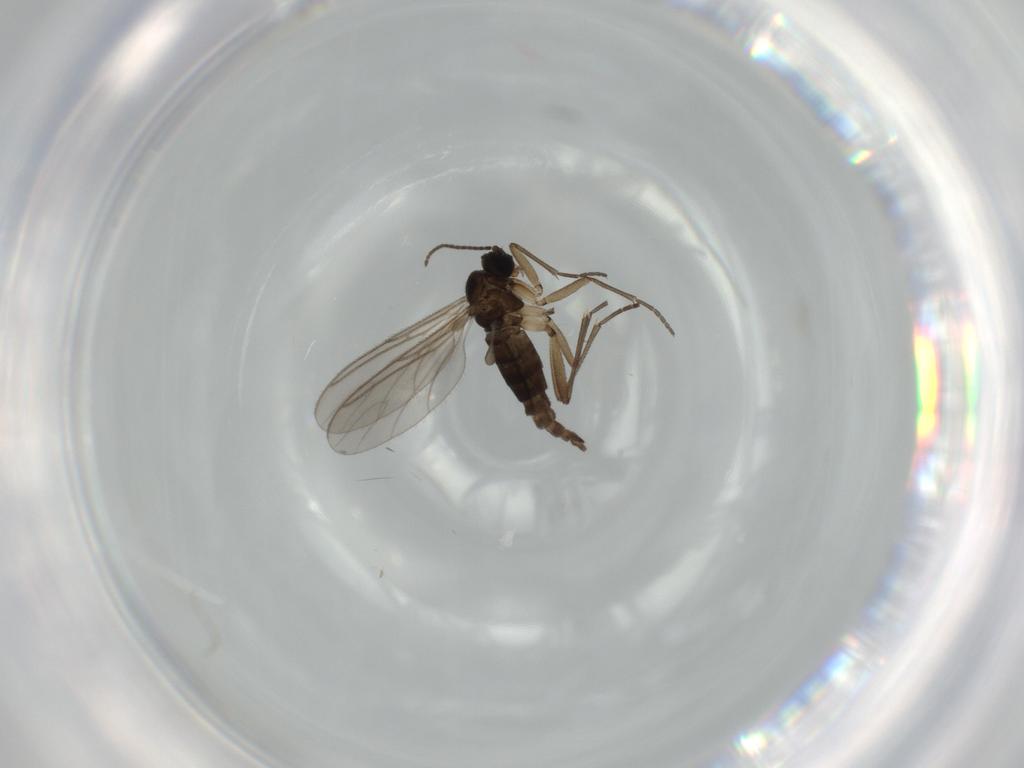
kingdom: Animalia
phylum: Arthropoda
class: Insecta
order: Diptera
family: Sciaridae
